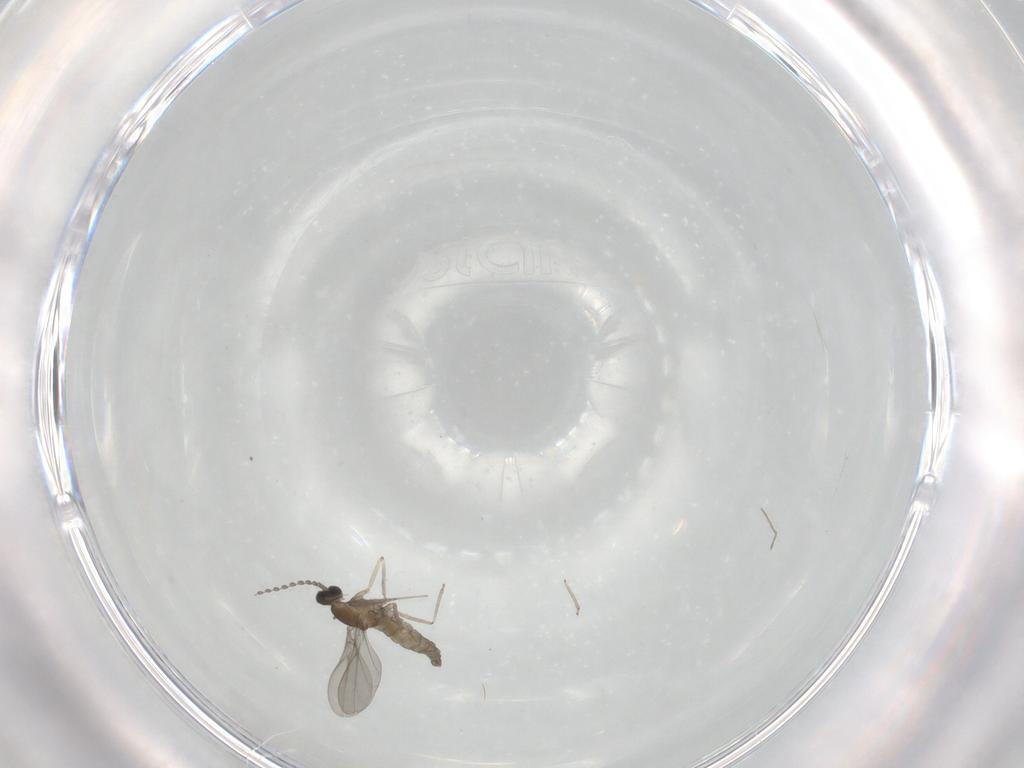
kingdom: Animalia
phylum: Arthropoda
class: Insecta
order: Diptera
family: Cecidomyiidae
